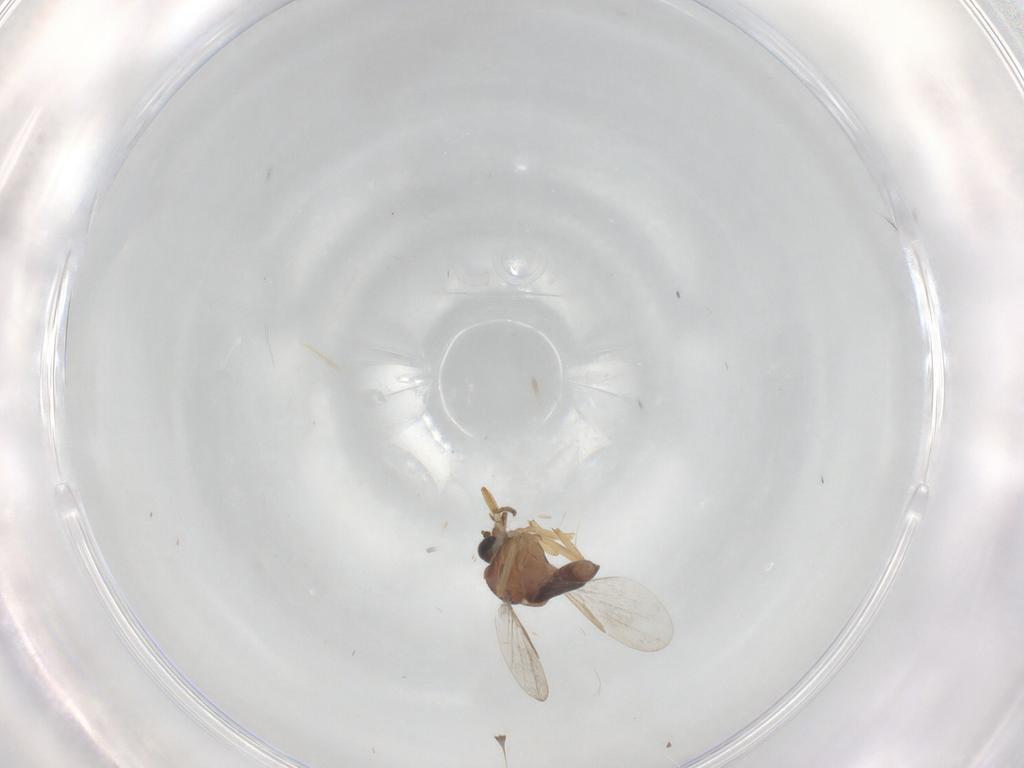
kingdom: Animalia
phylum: Arthropoda
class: Insecta
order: Diptera
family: Ceratopogonidae
